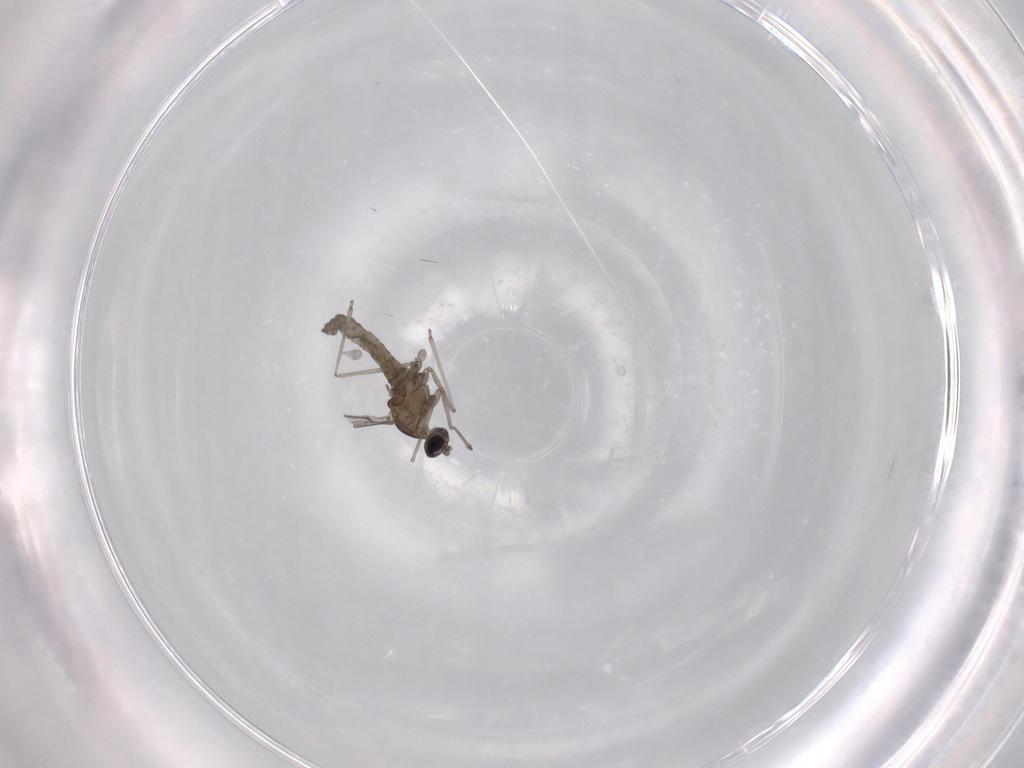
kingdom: Animalia
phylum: Arthropoda
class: Insecta
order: Diptera
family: Cecidomyiidae
